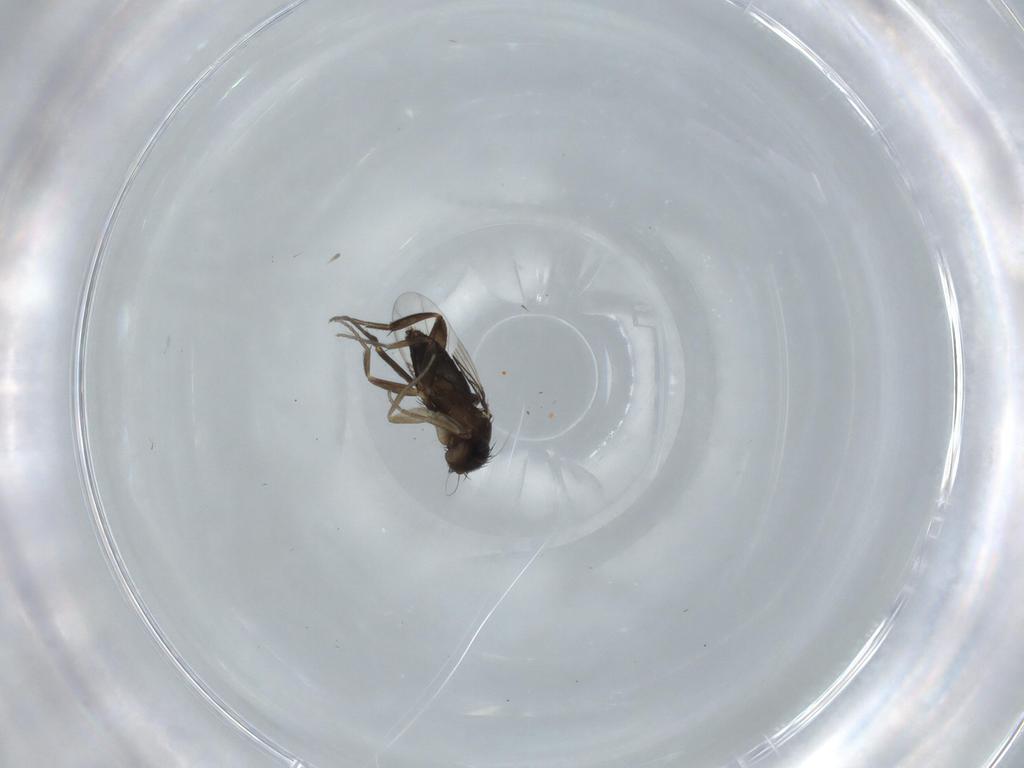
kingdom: Animalia
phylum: Arthropoda
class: Insecta
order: Diptera
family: Phoridae
